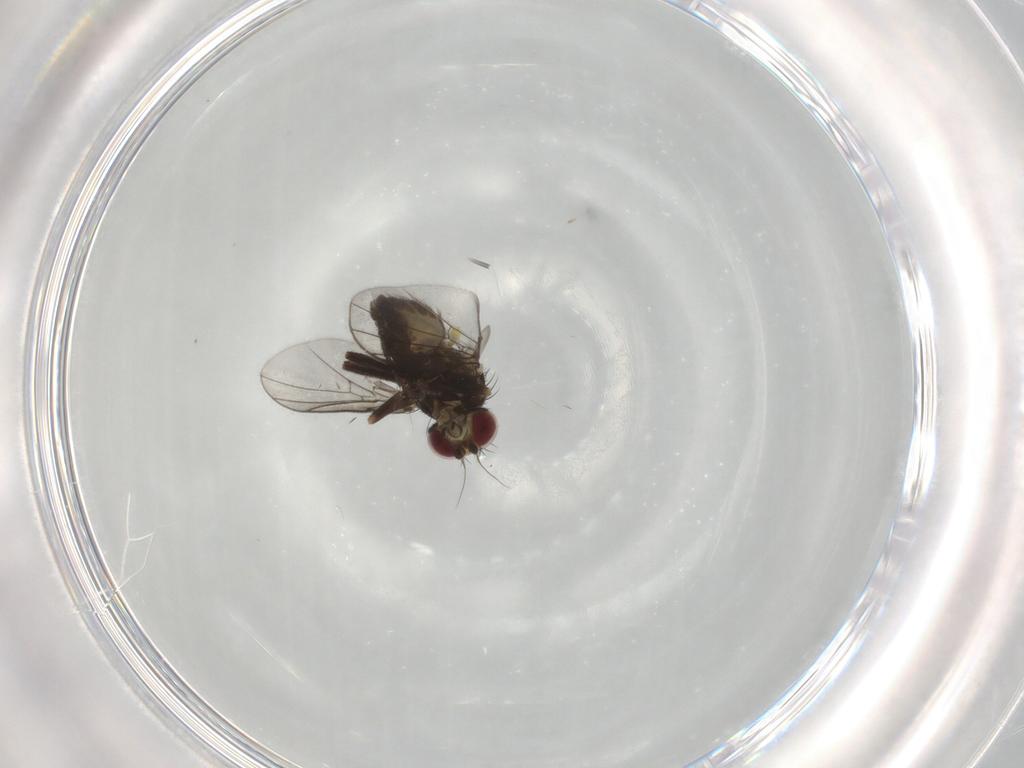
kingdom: Animalia
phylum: Arthropoda
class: Insecta
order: Diptera
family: Agromyzidae
